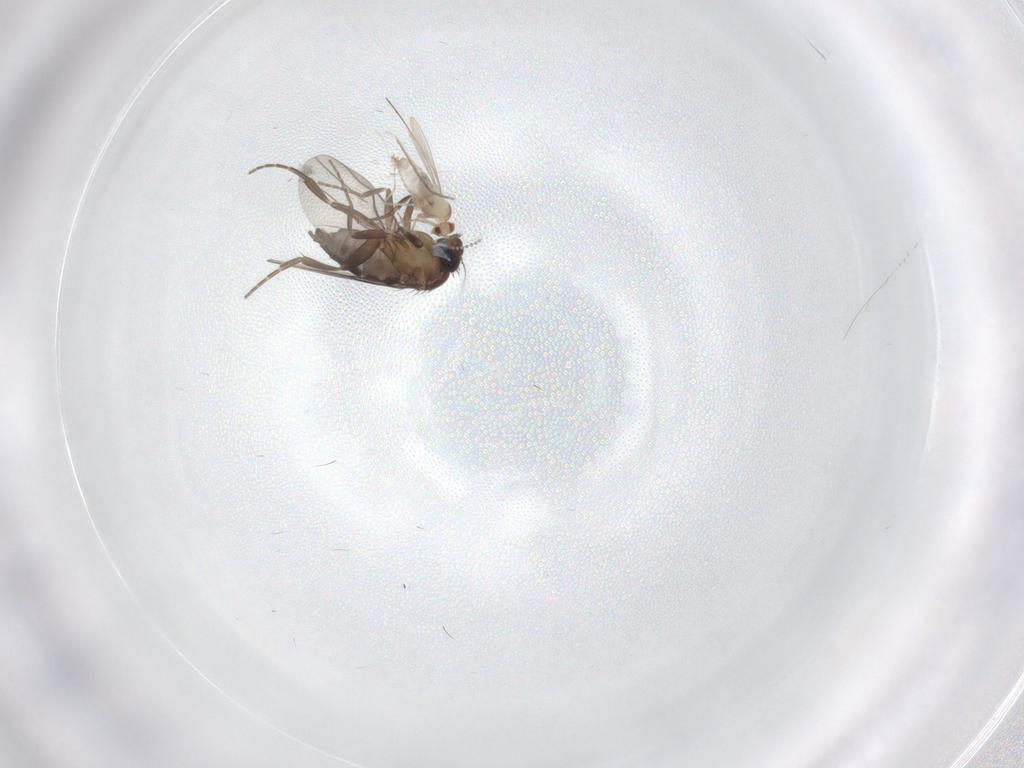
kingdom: Animalia
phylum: Arthropoda
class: Insecta
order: Diptera
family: Cecidomyiidae
